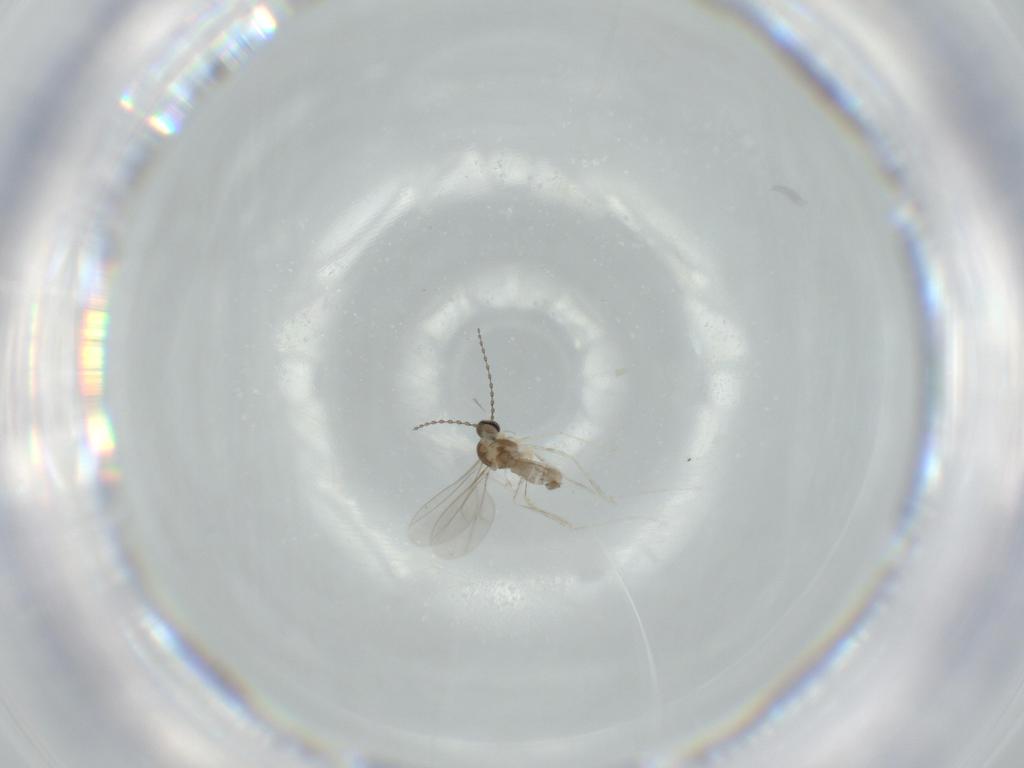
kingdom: Animalia
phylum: Arthropoda
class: Insecta
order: Diptera
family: Cecidomyiidae
